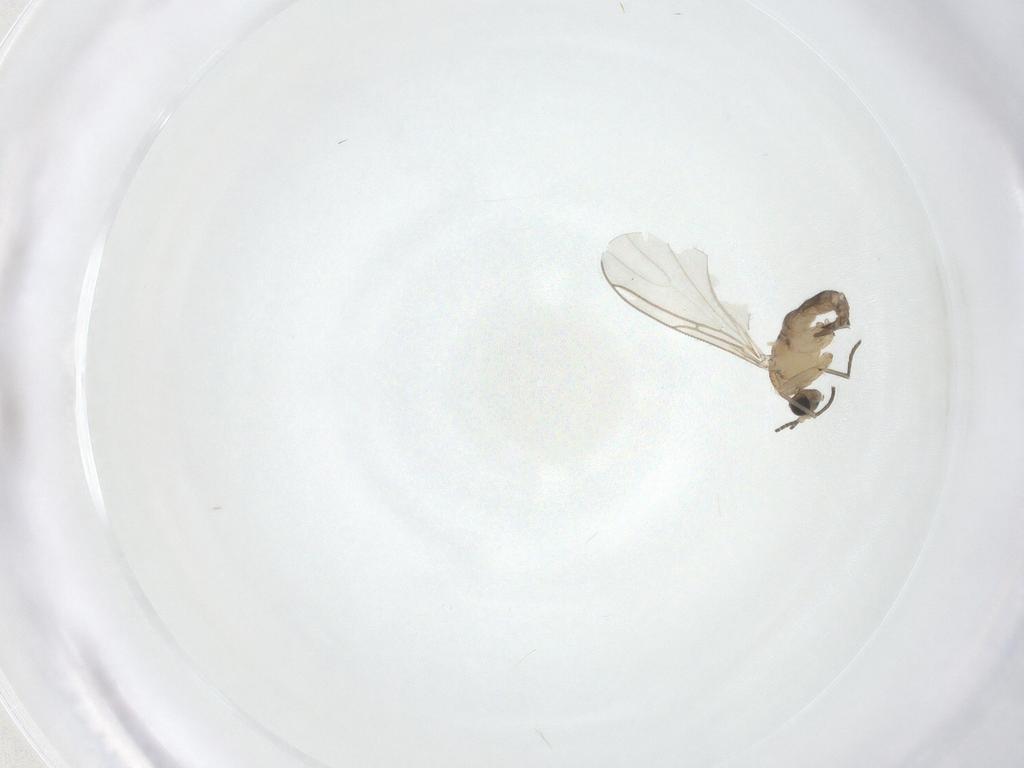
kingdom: Animalia
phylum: Arthropoda
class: Insecta
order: Diptera
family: Sciaridae
